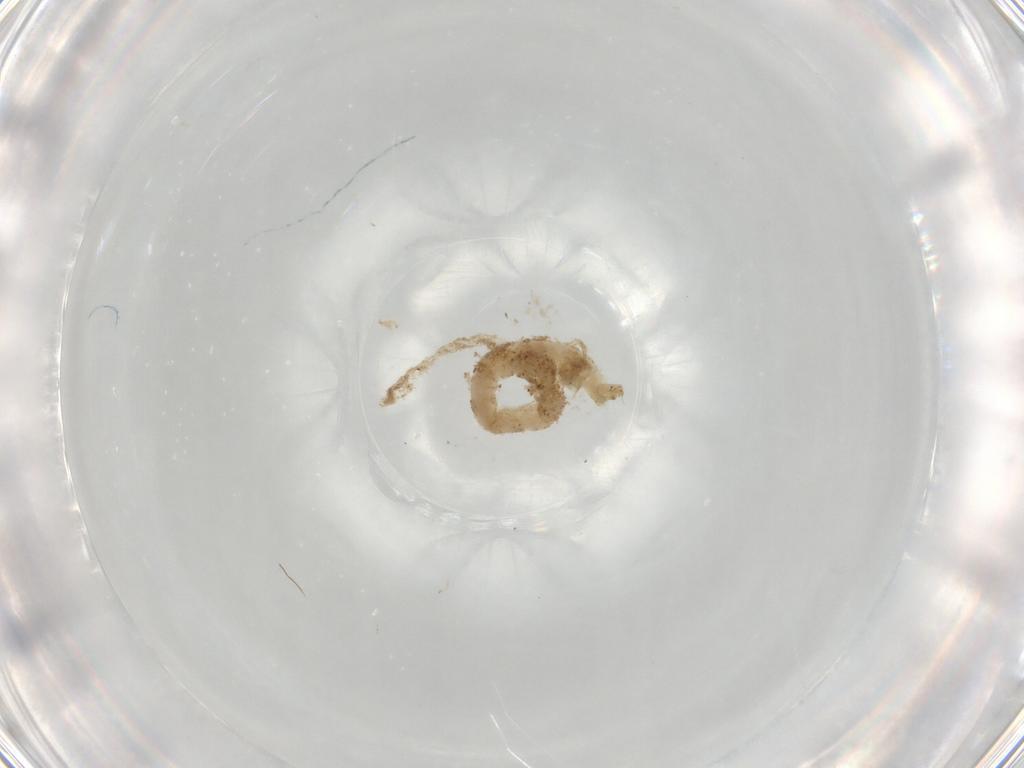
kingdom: Animalia
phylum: Arthropoda
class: Insecta
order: Diptera
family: Chironomidae
